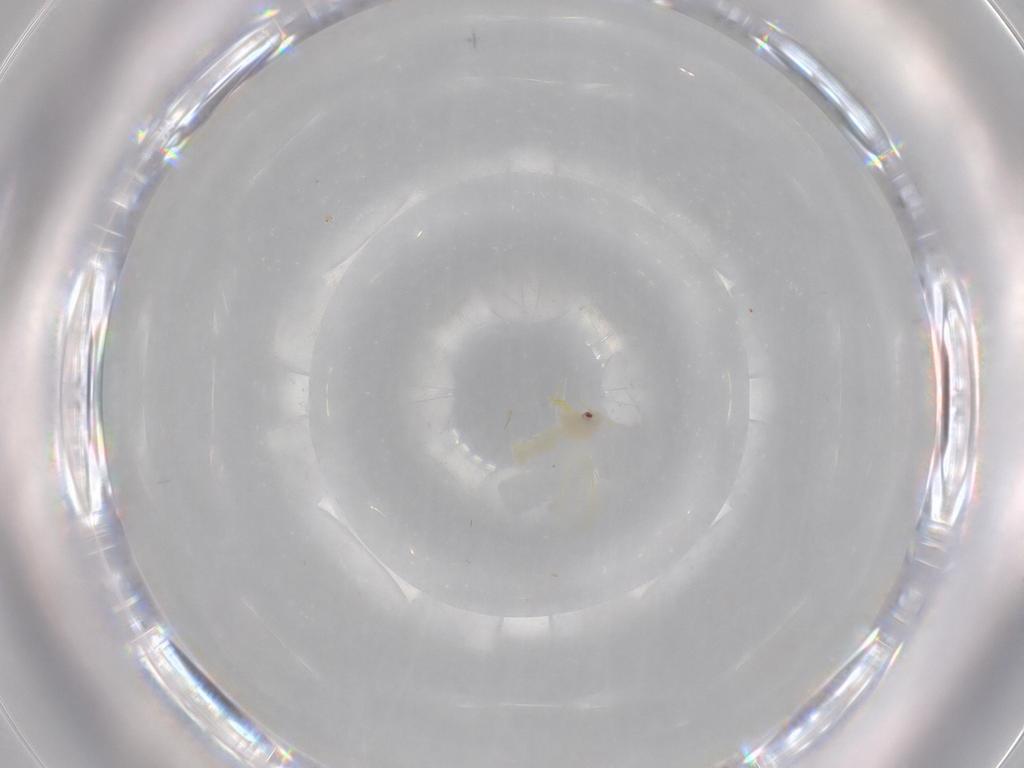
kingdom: Animalia
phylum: Arthropoda
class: Insecta
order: Hemiptera
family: Aleyrodidae
